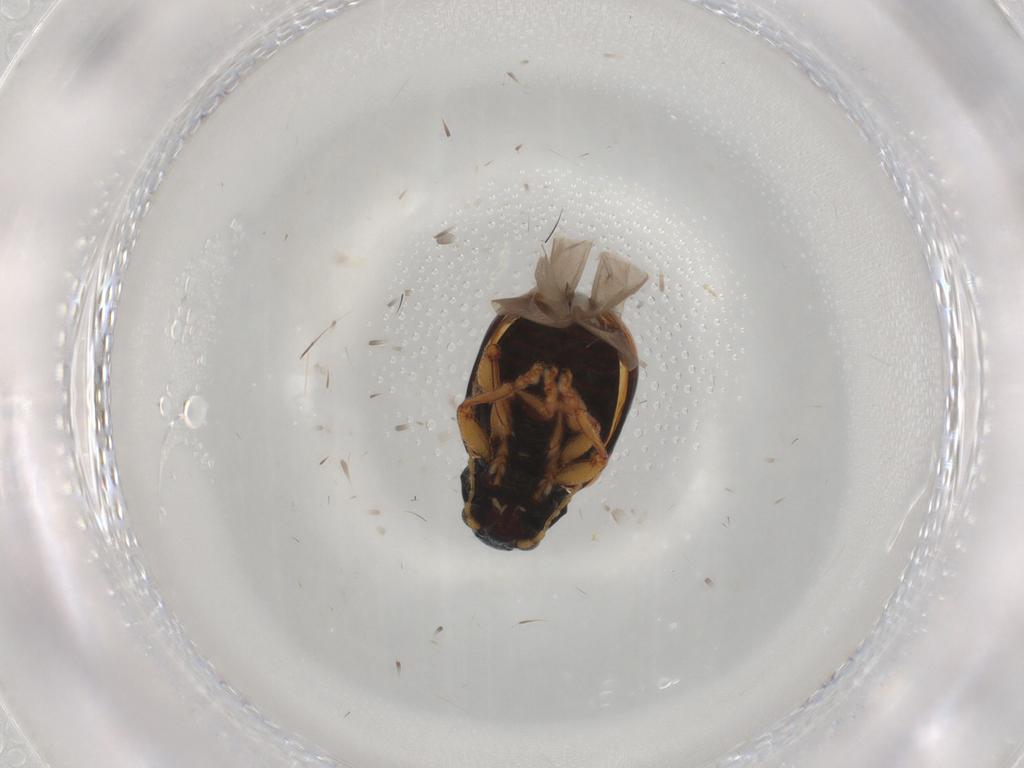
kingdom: Animalia
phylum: Arthropoda
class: Insecta
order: Coleoptera
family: Chrysomelidae
